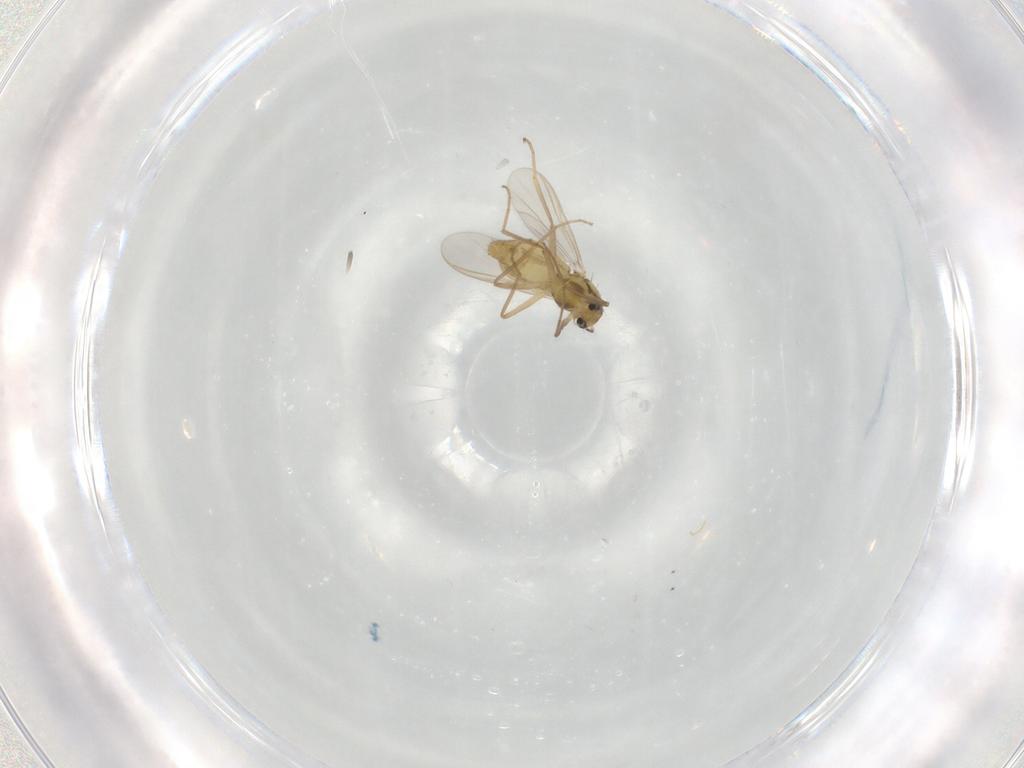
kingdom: Animalia
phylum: Arthropoda
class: Insecta
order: Diptera
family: Chironomidae
